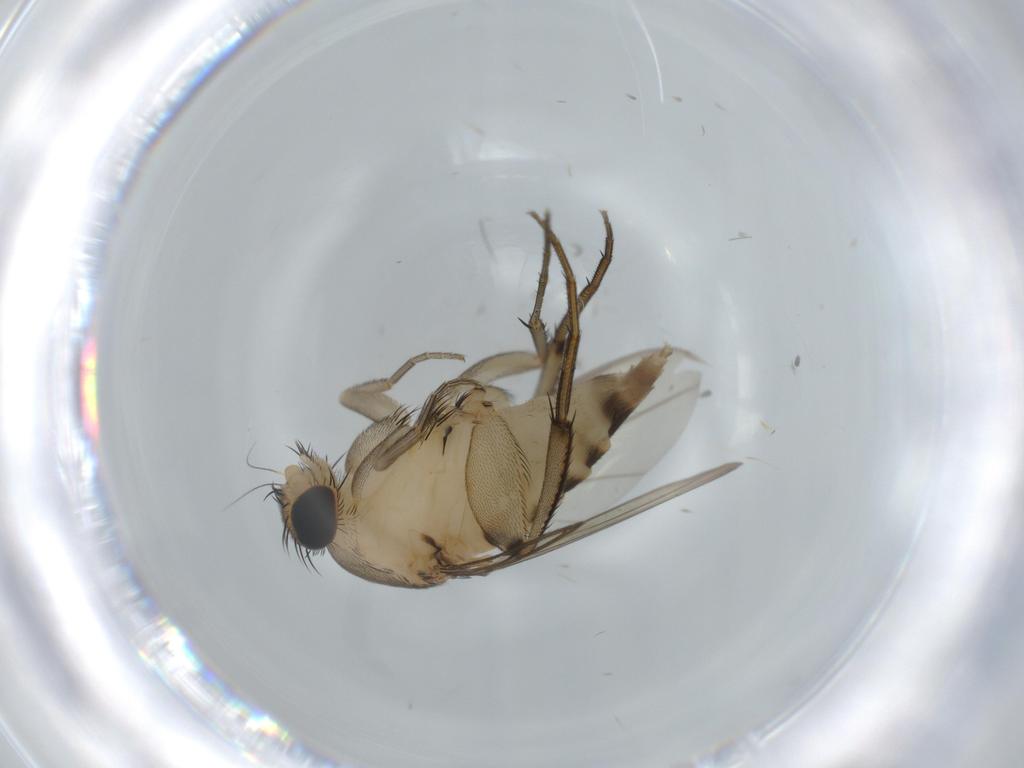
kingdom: Animalia
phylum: Arthropoda
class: Insecta
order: Diptera
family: Phoridae
